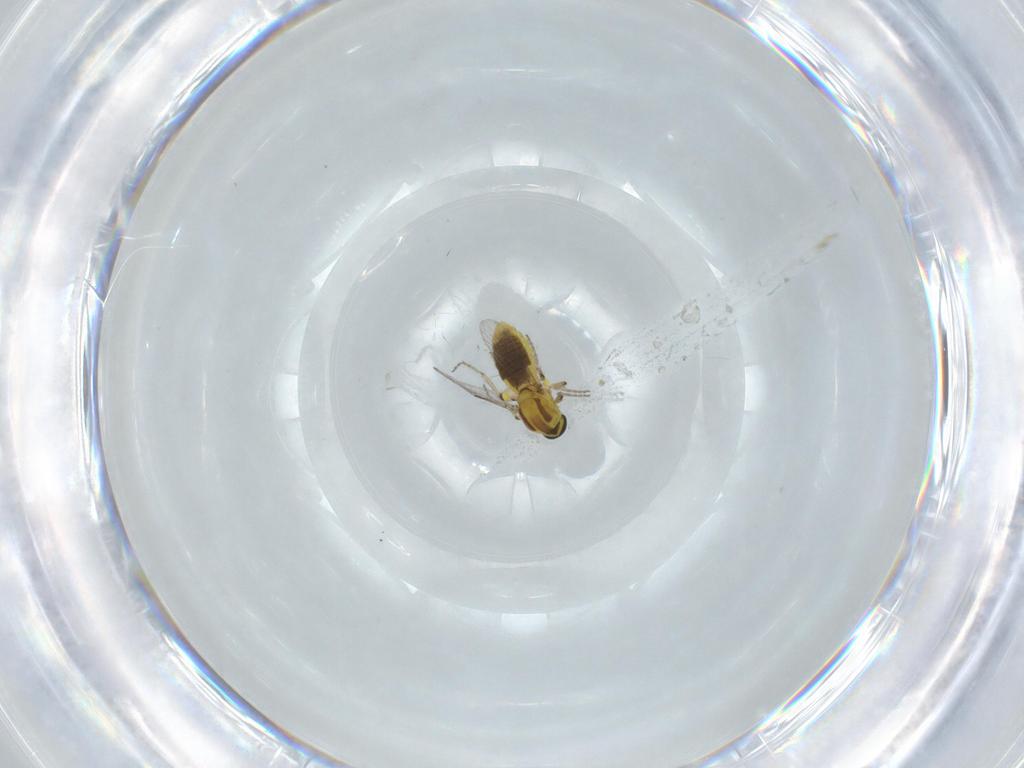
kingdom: Animalia
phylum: Arthropoda
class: Insecta
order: Diptera
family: Ceratopogonidae
